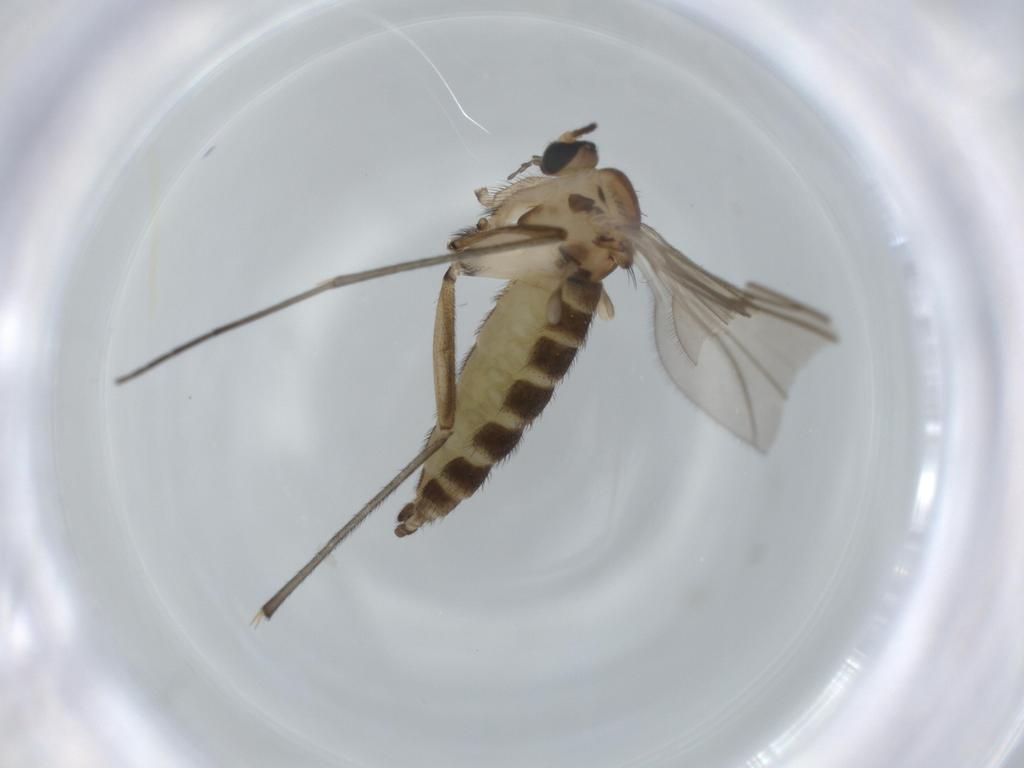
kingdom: Animalia
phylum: Arthropoda
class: Insecta
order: Diptera
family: Sciaridae
